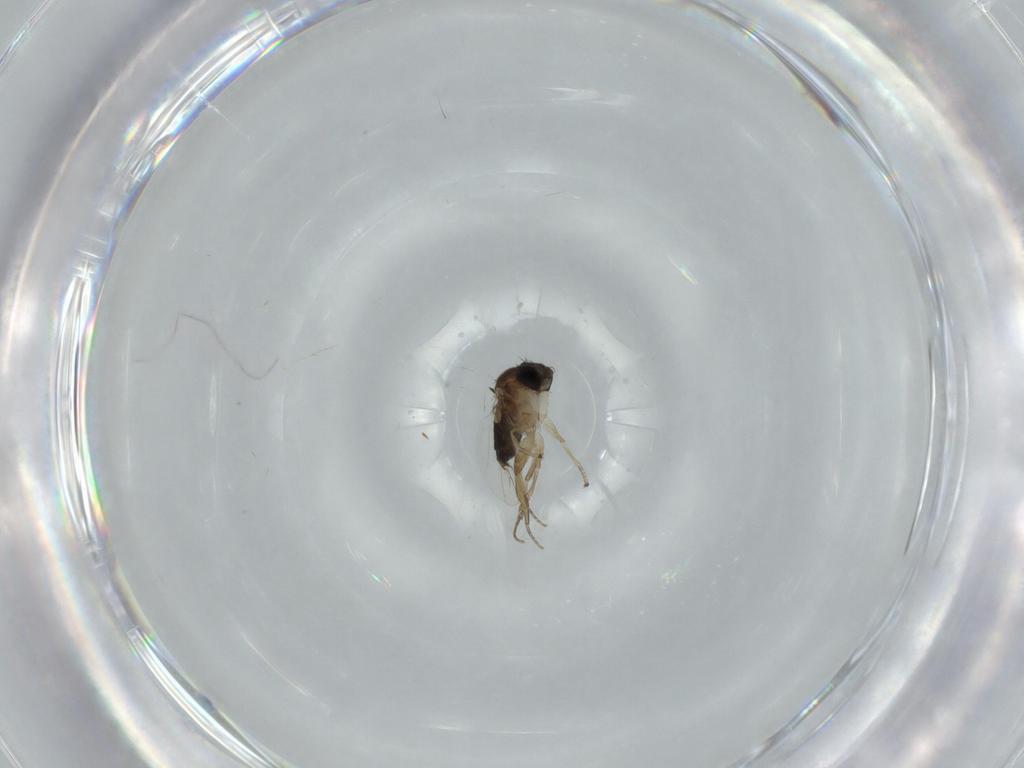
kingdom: Animalia
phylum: Arthropoda
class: Insecta
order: Diptera
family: Phoridae
